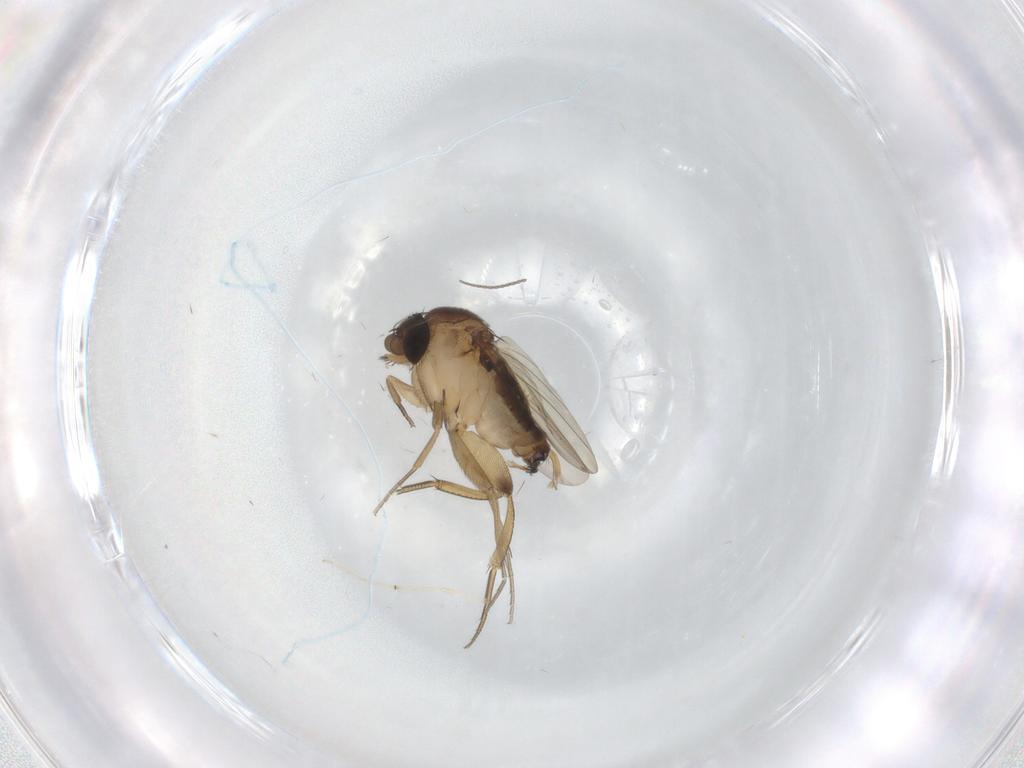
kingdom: Animalia
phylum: Arthropoda
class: Insecta
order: Diptera
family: Phoridae
